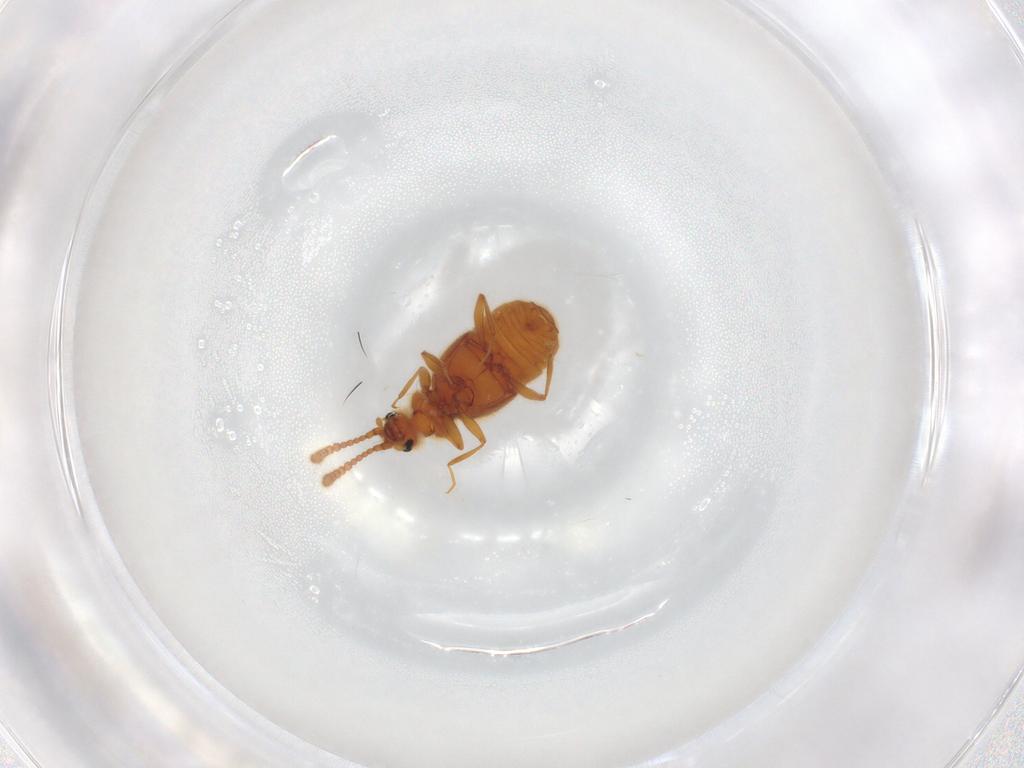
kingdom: Animalia
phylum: Arthropoda
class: Insecta
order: Coleoptera
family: Staphylinidae
